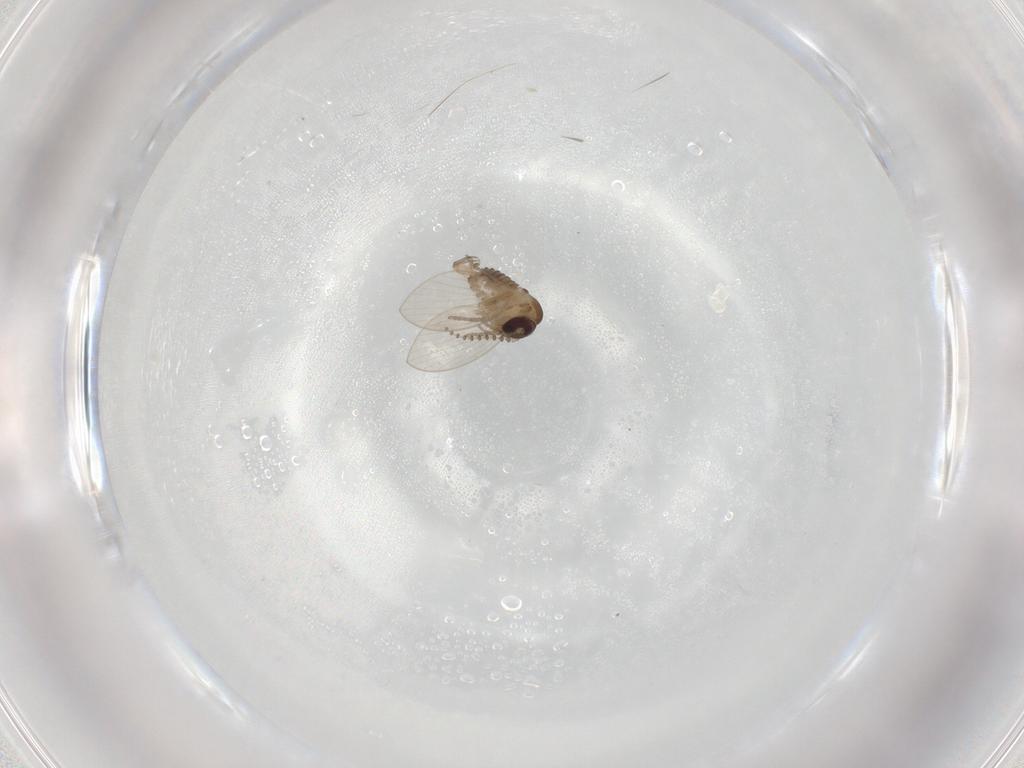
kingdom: Animalia
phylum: Arthropoda
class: Insecta
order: Diptera
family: Psychodidae
